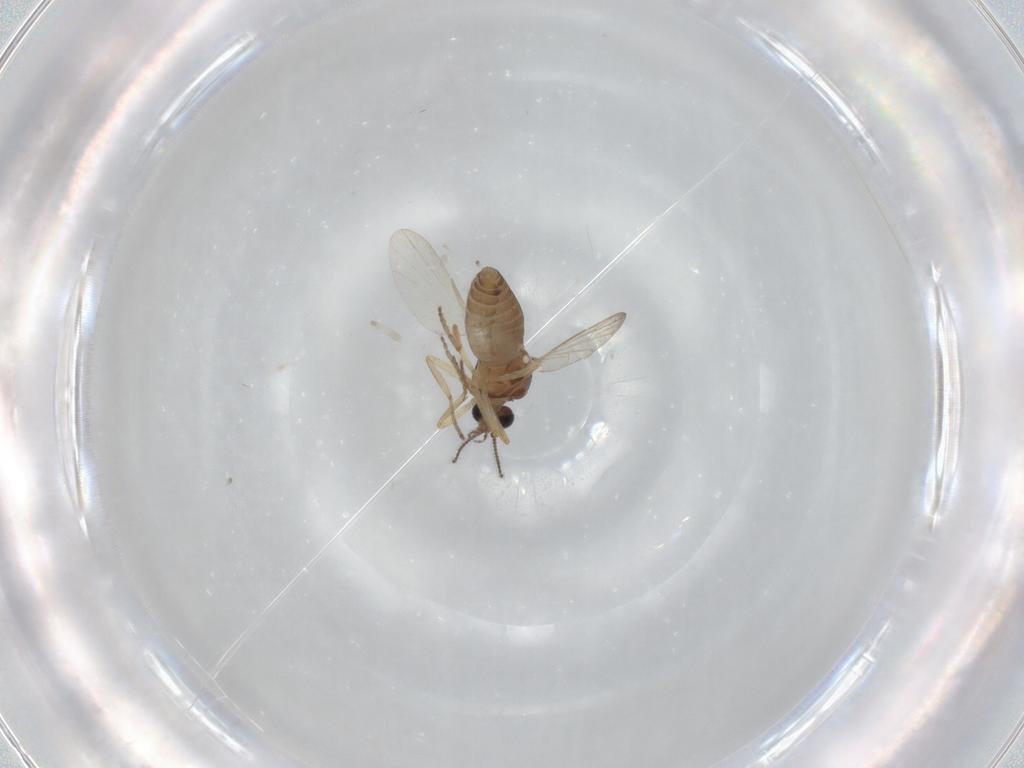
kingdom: Animalia
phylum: Arthropoda
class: Insecta
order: Diptera
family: Ceratopogonidae
